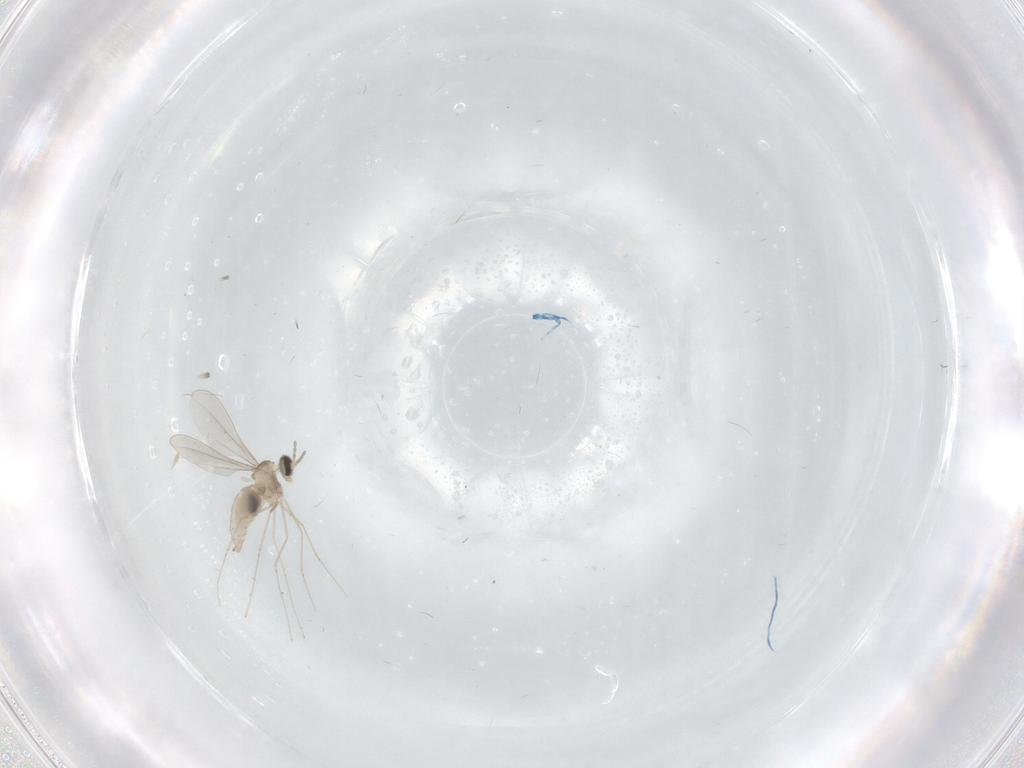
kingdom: Animalia
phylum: Arthropoda
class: Insecta
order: Diptera
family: Cecidomyiidae
